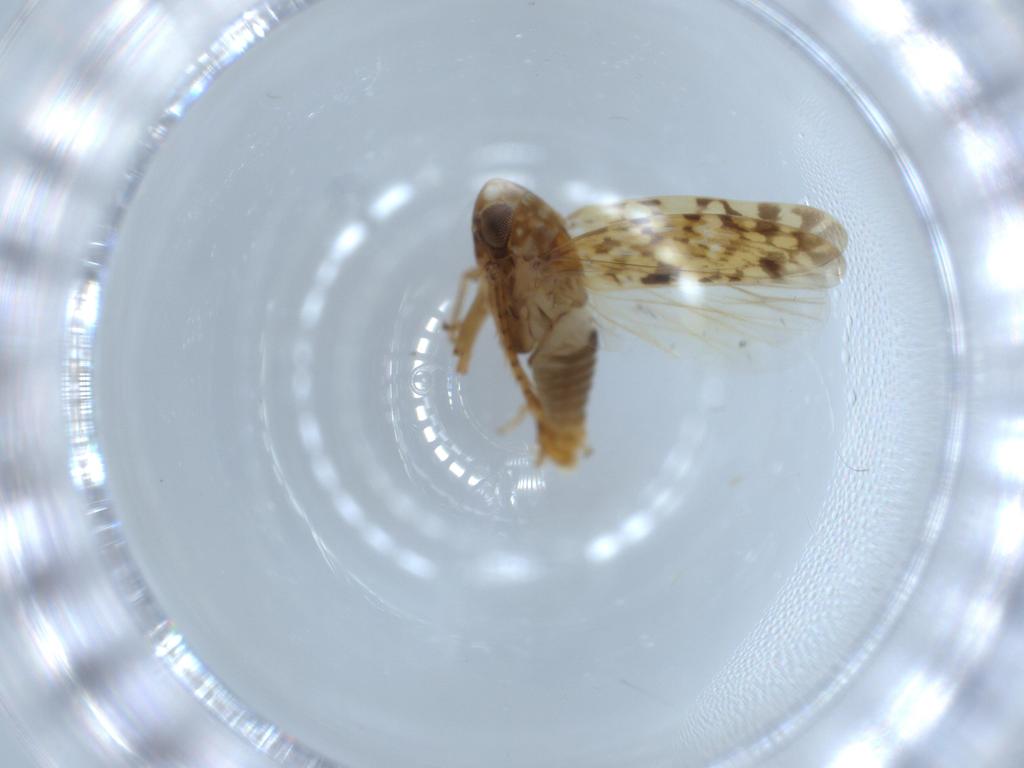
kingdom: Animalia
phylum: Arthropoda
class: Insecta
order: Hemiptera
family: Cicadellidae
